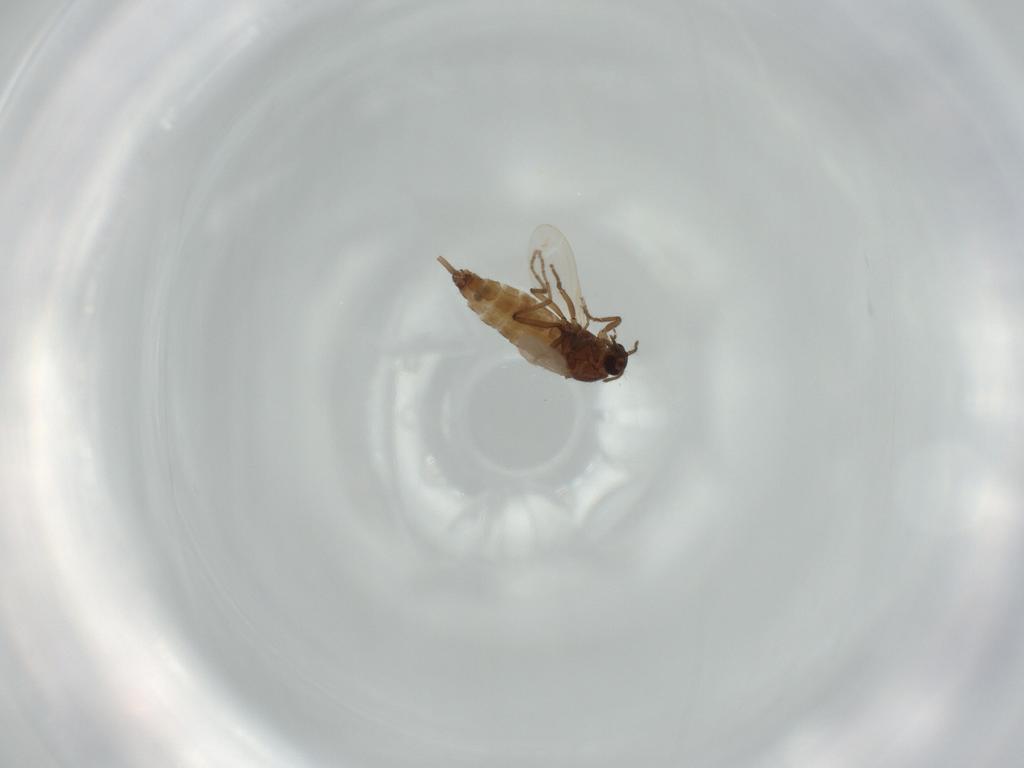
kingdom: Animalia
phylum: Arthropoda
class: Insecta
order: Diptera
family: Ceratopogonidae
